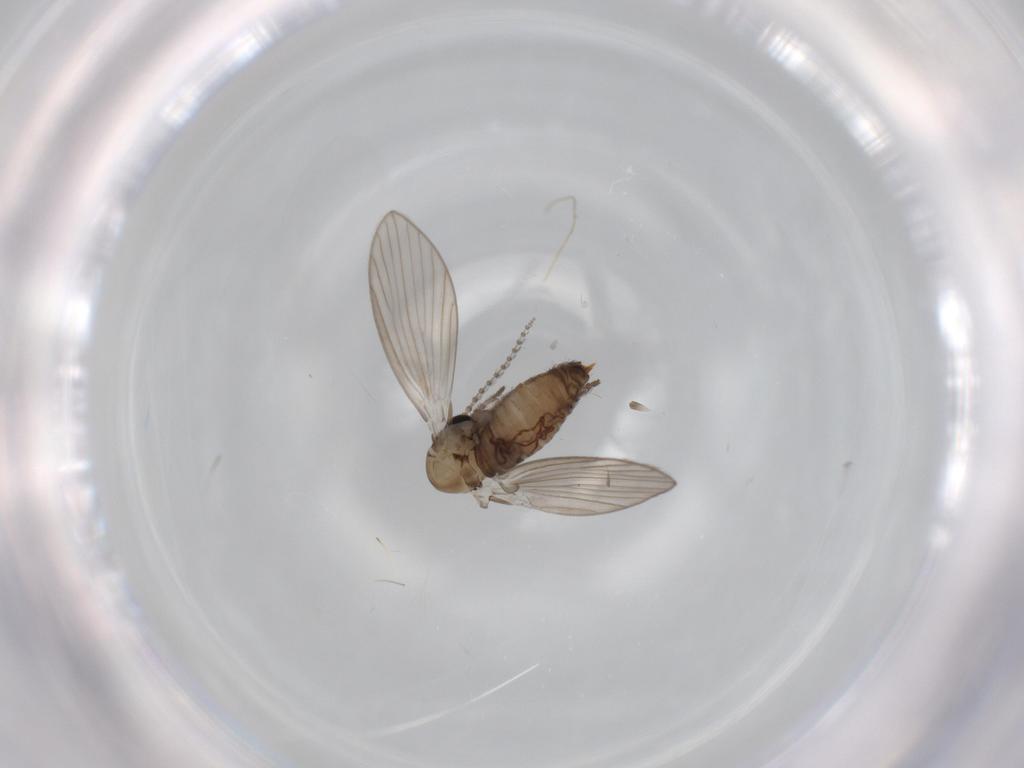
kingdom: Animalia
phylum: Arthropoda
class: Insecta
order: Diptera
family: Psychodidae
